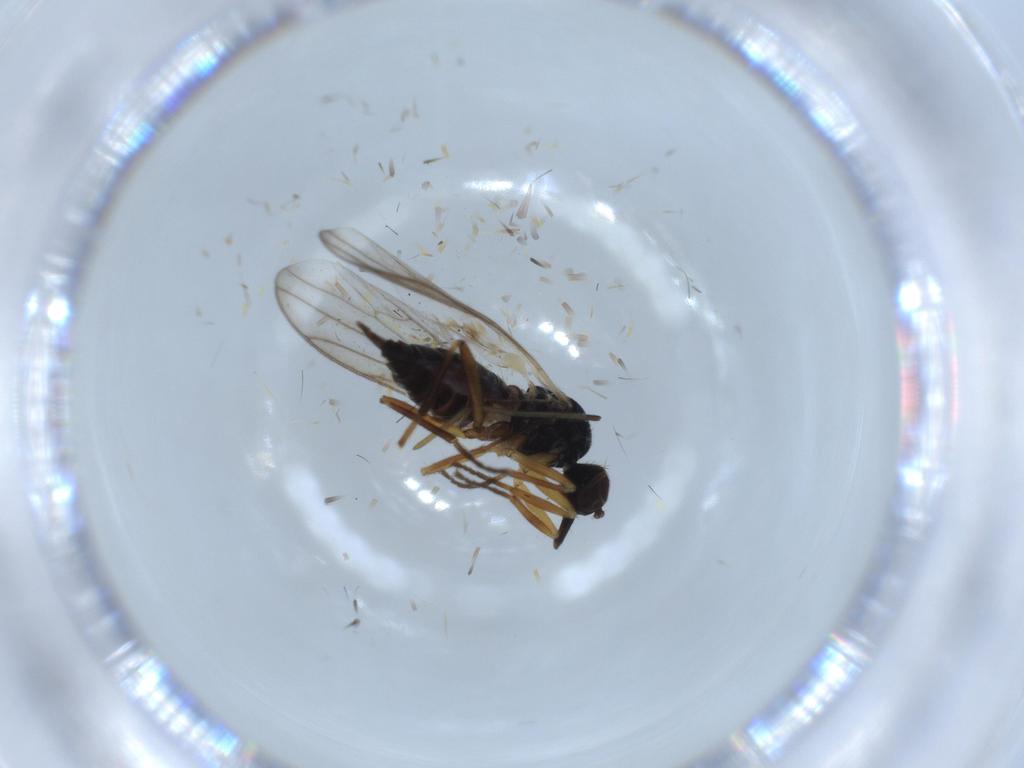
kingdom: Animalia
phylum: Arthropoda
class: Insecta
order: Diptera
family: Hybotidae
